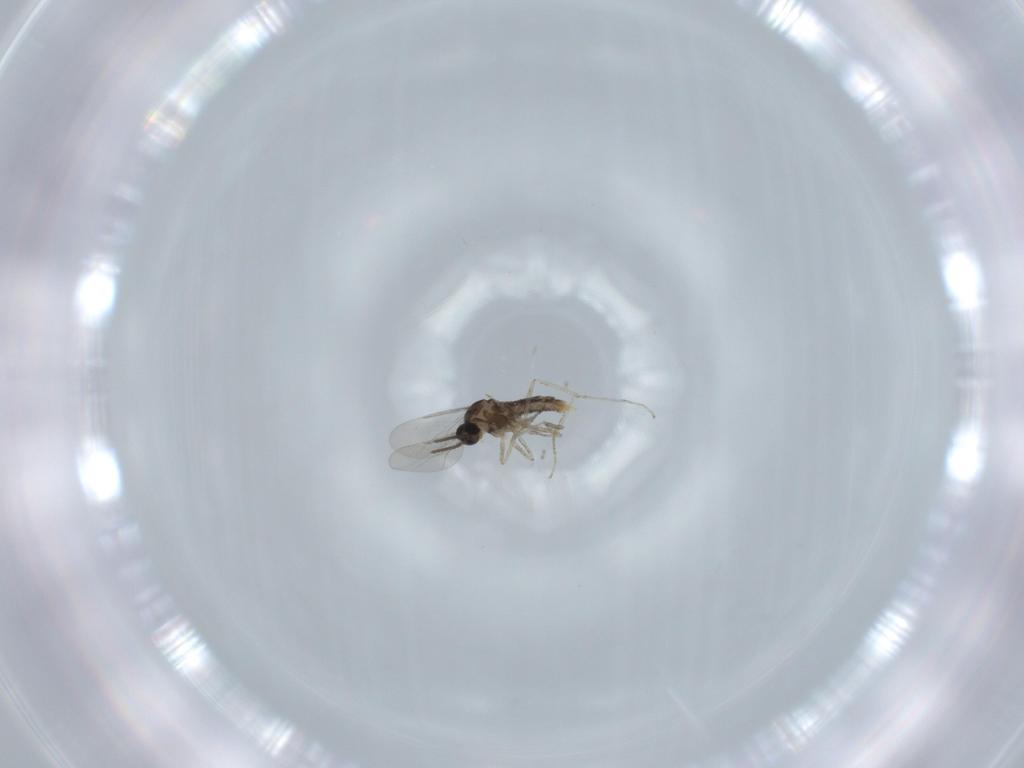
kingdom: Animalia
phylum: Arthropoda
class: Insecta
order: Diptera
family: Cecidomyiidae
